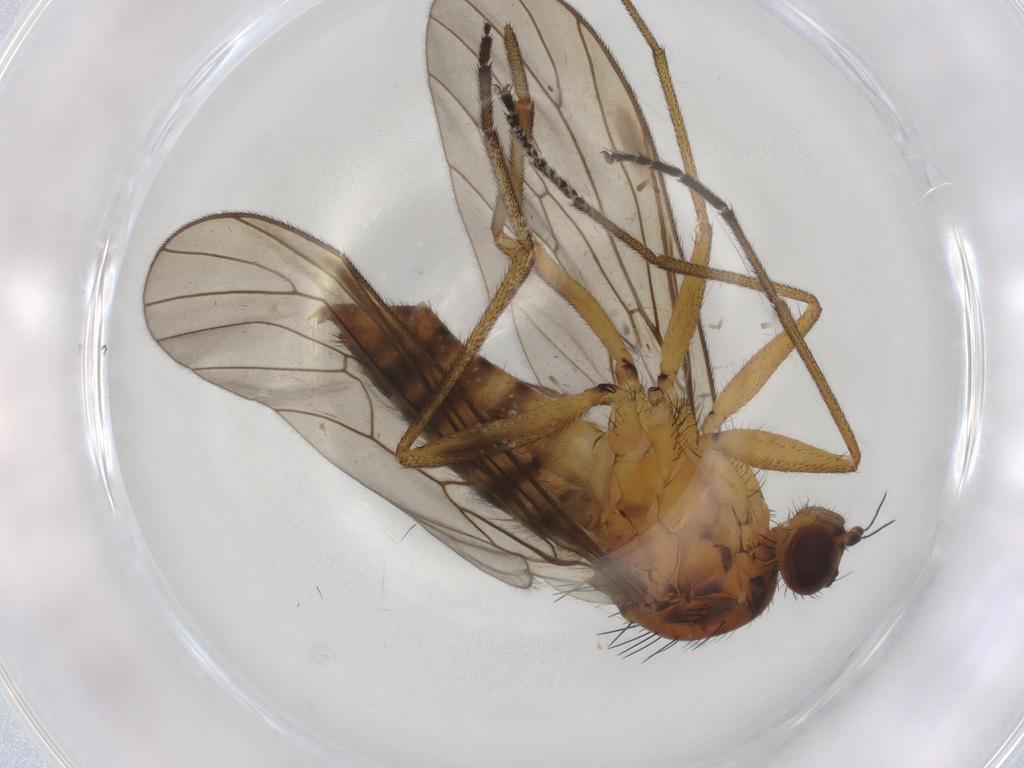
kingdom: Animalia
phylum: Arthropoda
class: Insecta
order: Diptera
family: Brachystomatidae
